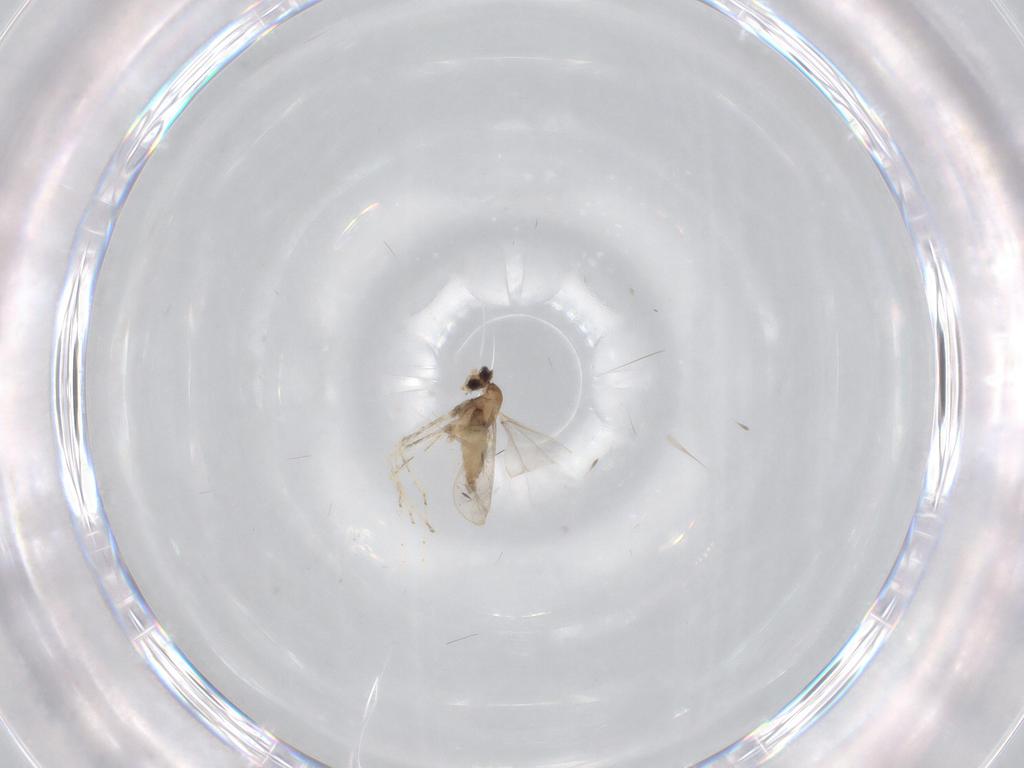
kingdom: Animalia
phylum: Arthropoda
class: Insecta
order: Diptera
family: Cecidomyiidae
